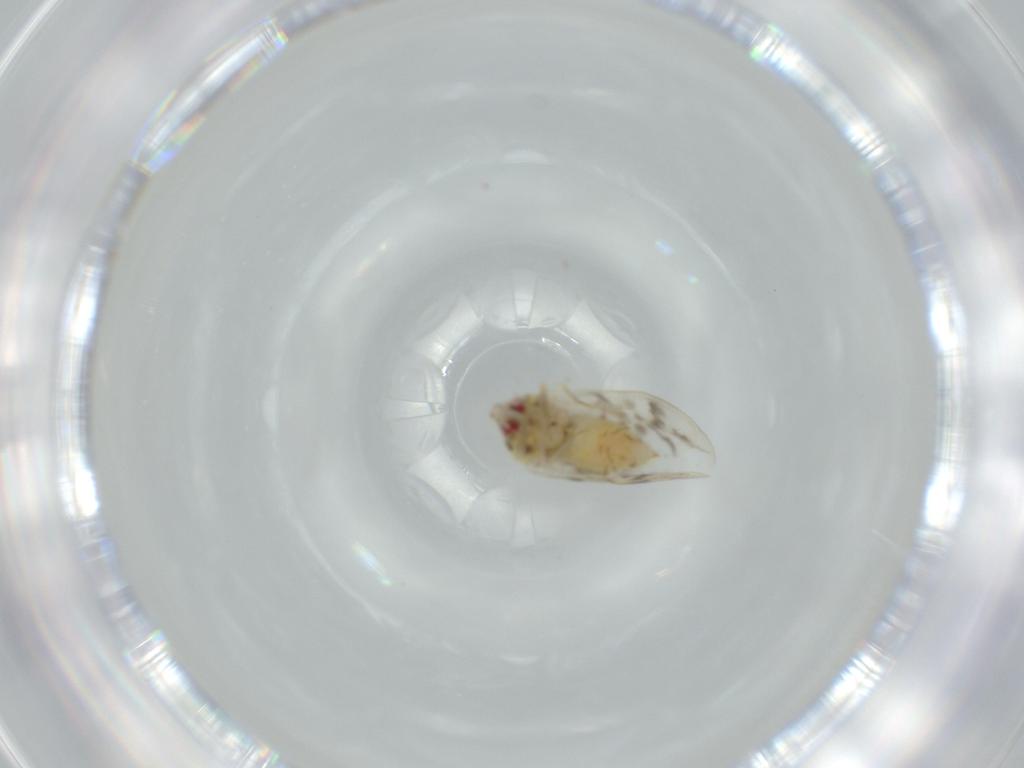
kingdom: Animalia
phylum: Arthropoda
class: Insecta
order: Hemiptera
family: Aleyrodidae
